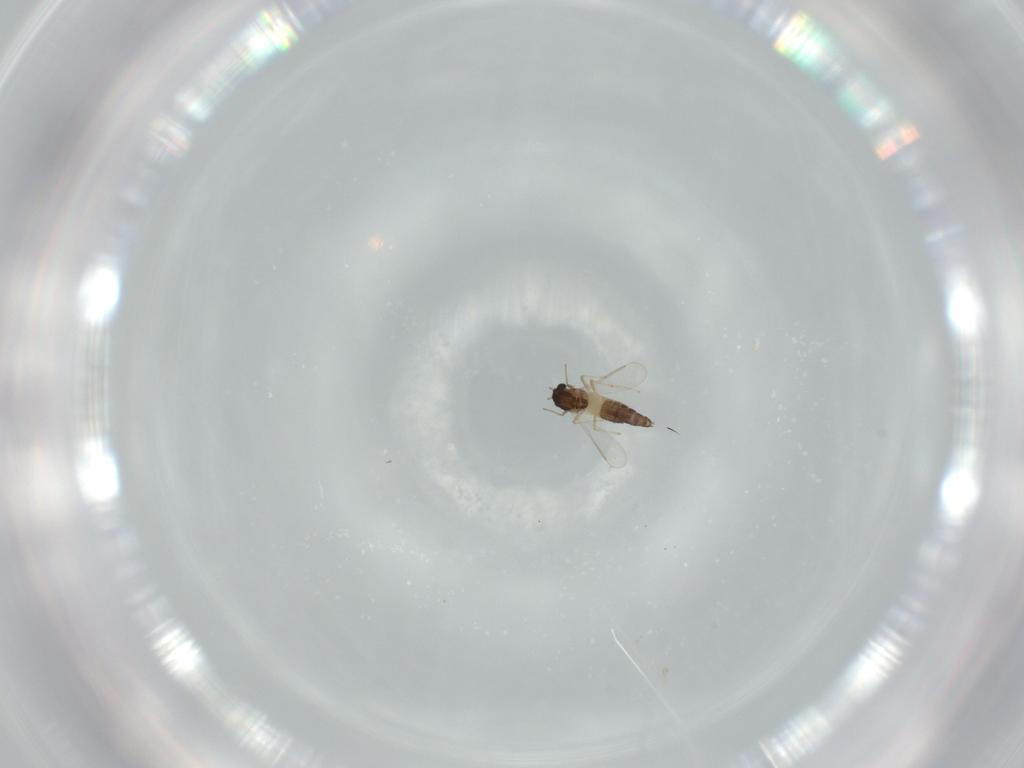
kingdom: Animalia
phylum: Arthropoda
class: Insecta
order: Diptera
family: Chironomidae
